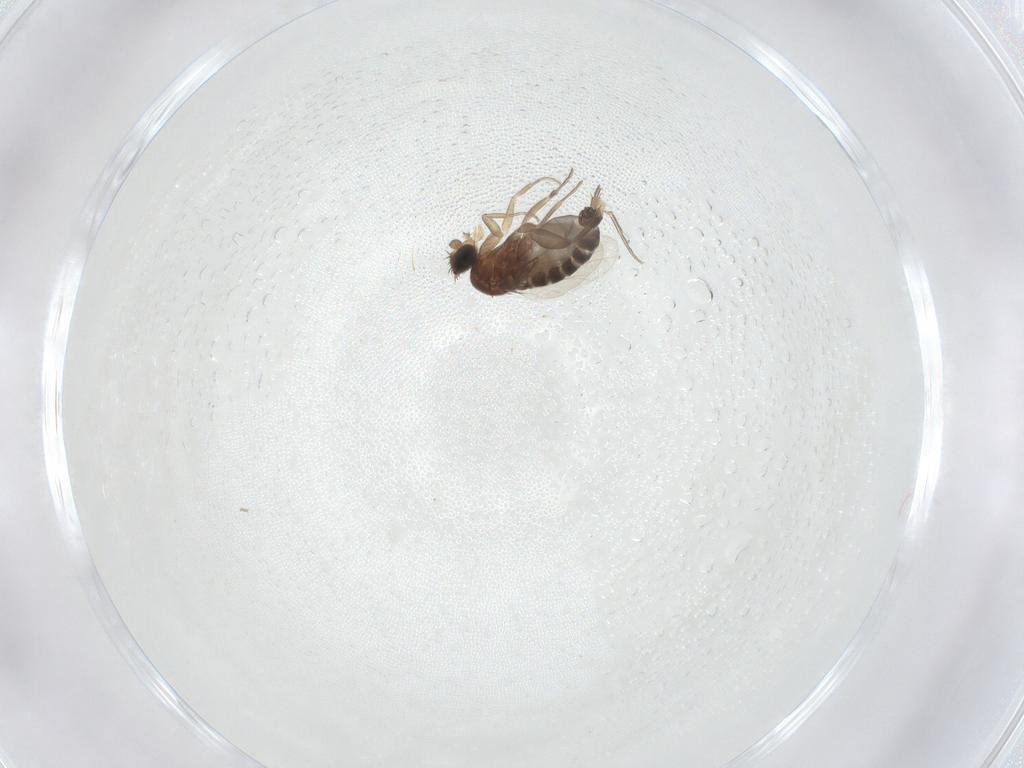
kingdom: Animalia
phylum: Arthropoda
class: Insecta
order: Diptera
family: Phoridae
